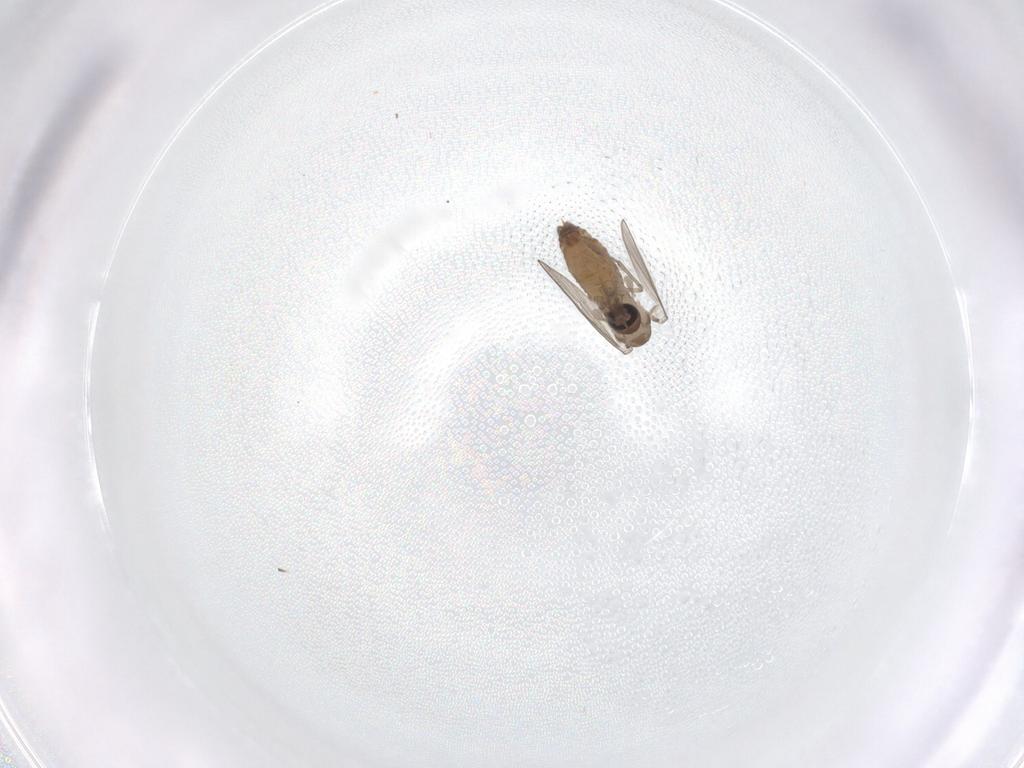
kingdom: Animalia
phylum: Arthropoda
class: Insecta
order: Diptera
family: Psychodidae
